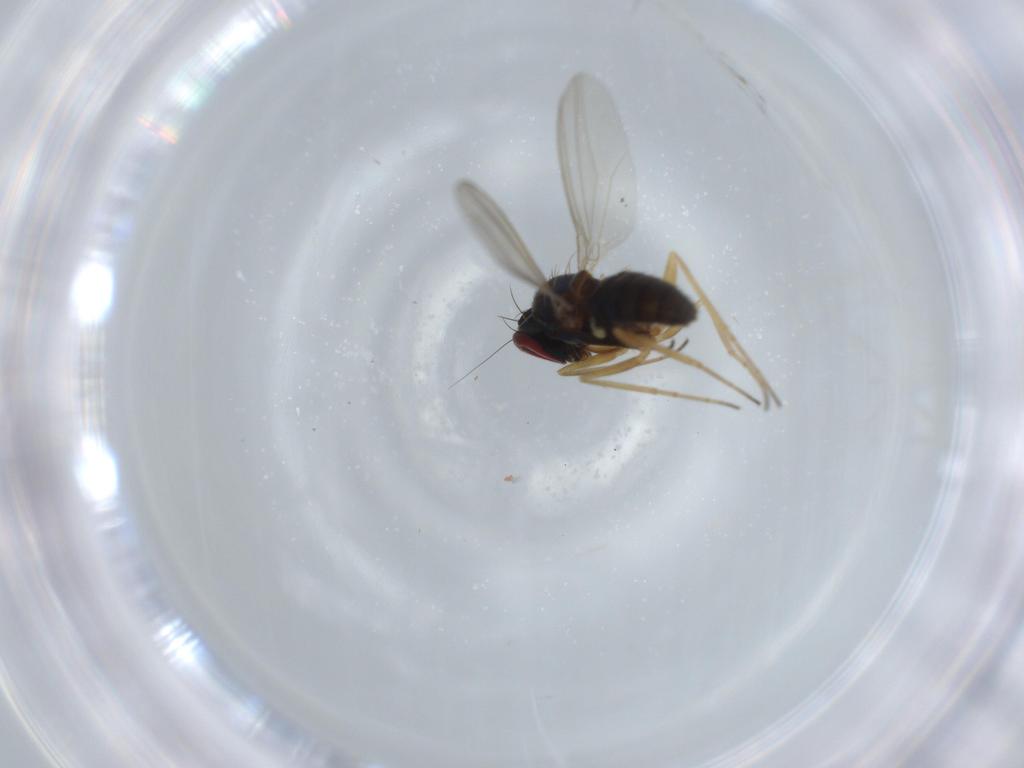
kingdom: Animalia
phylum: Arthropoda
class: Insecta
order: Diptera
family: Dolichopodidae
